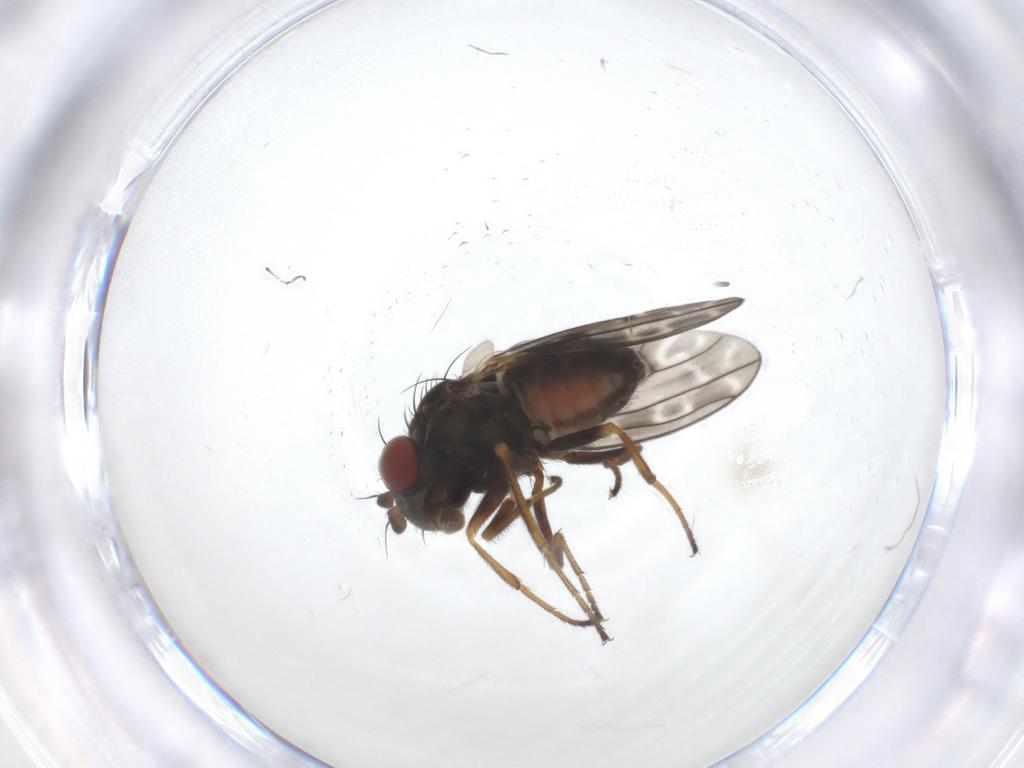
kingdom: Animalia
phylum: Arthropoda
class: Insecta
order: Diptera
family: Ephydridae
